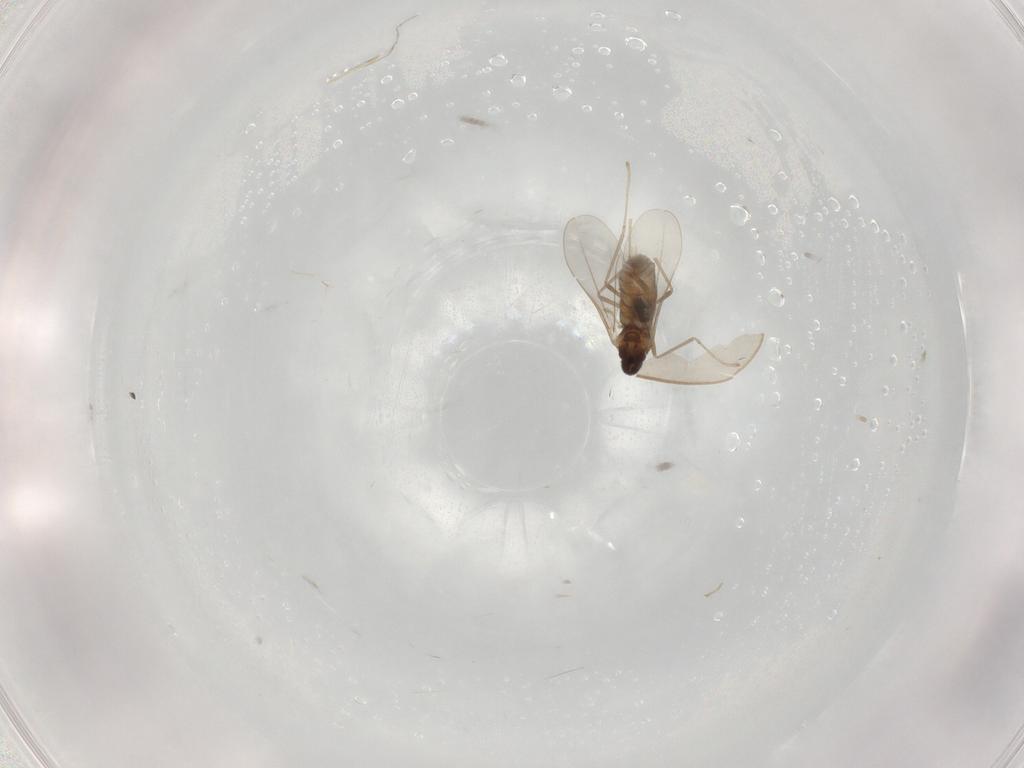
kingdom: Animalia
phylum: Arthropoda
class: Insecta
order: Diptera
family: Cecidomyiidae
